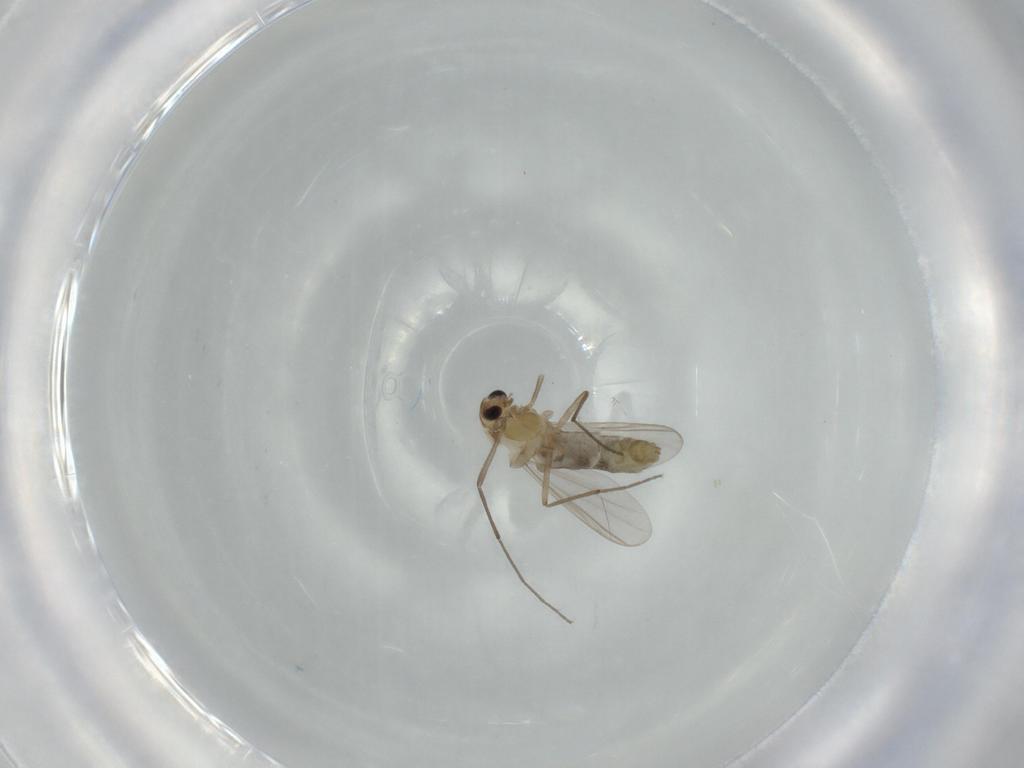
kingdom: Animalia
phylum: Arthropoda
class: Insecta
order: Diptera
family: Chironomidae
